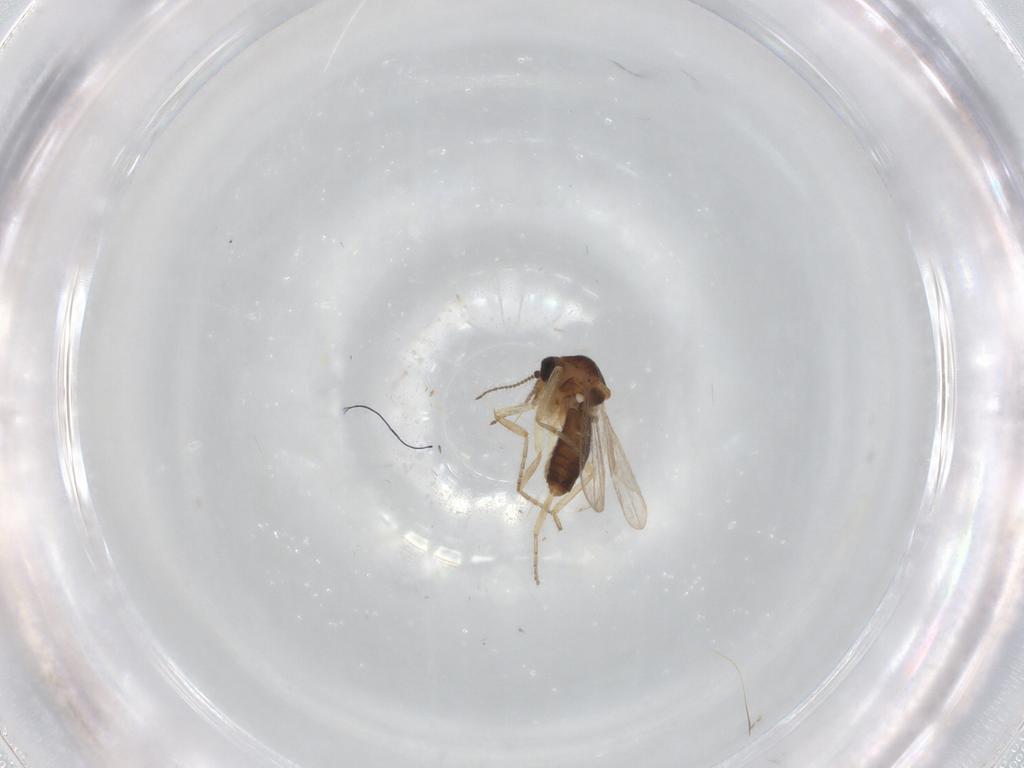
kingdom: Animalia
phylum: Arthropoda
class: Insecta
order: Diptera
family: Ceratopogonidae
